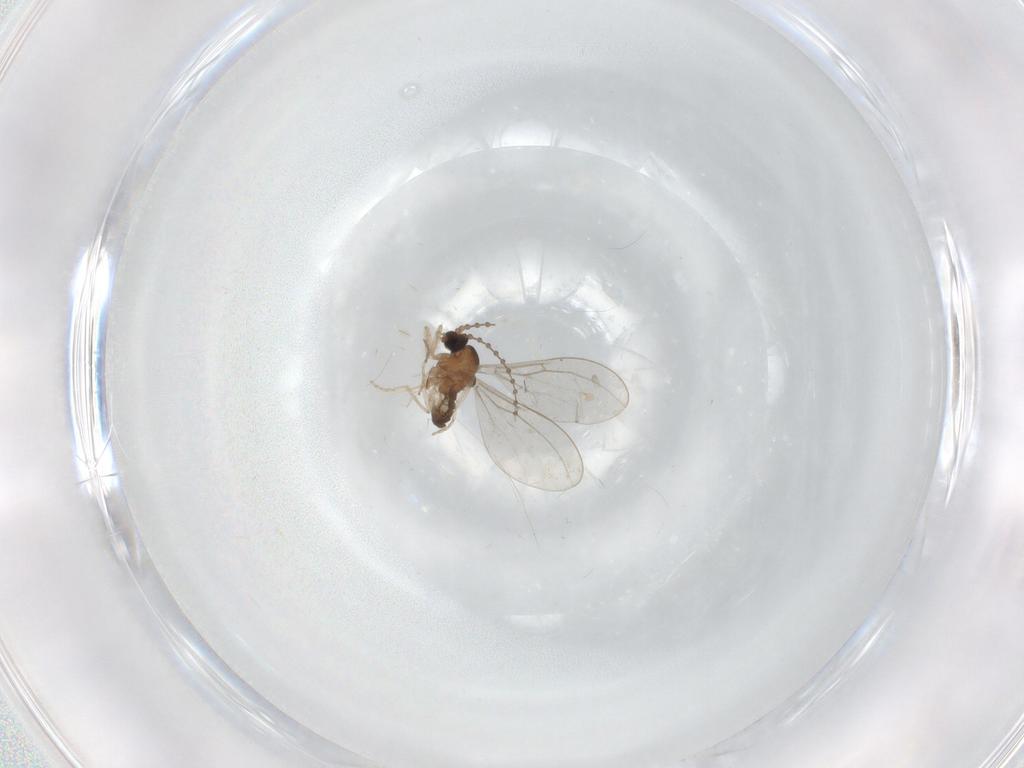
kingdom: Animalia
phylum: Arthropoda
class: Insecta
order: Diptera
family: Cecidomyiidae
